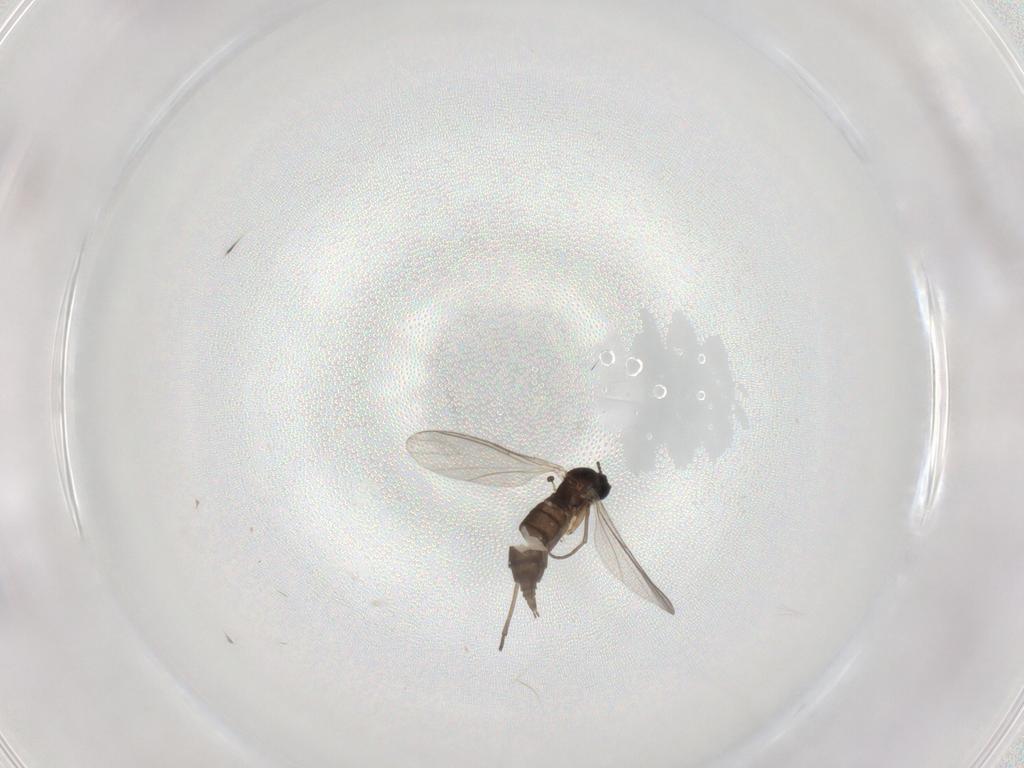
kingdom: Animalia
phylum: Arthropoda
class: Insecta
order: Diptera
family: Sciaridae
